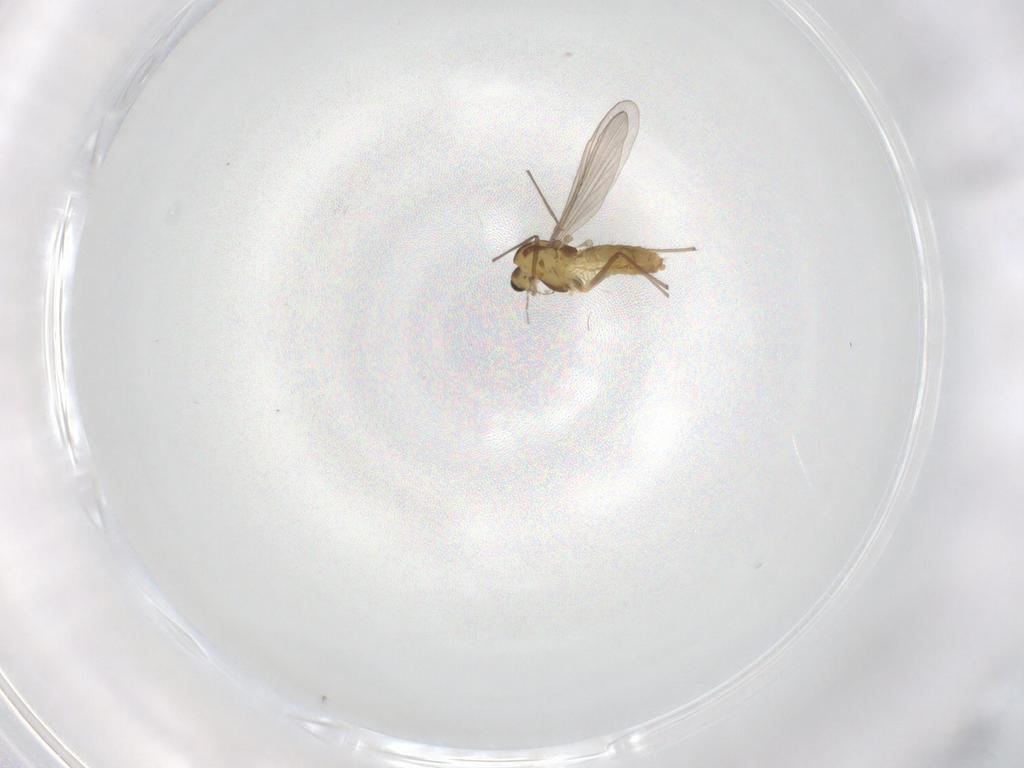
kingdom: Animalia
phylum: Arthropoda
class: Insecta
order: Diptera
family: Chironomidae
